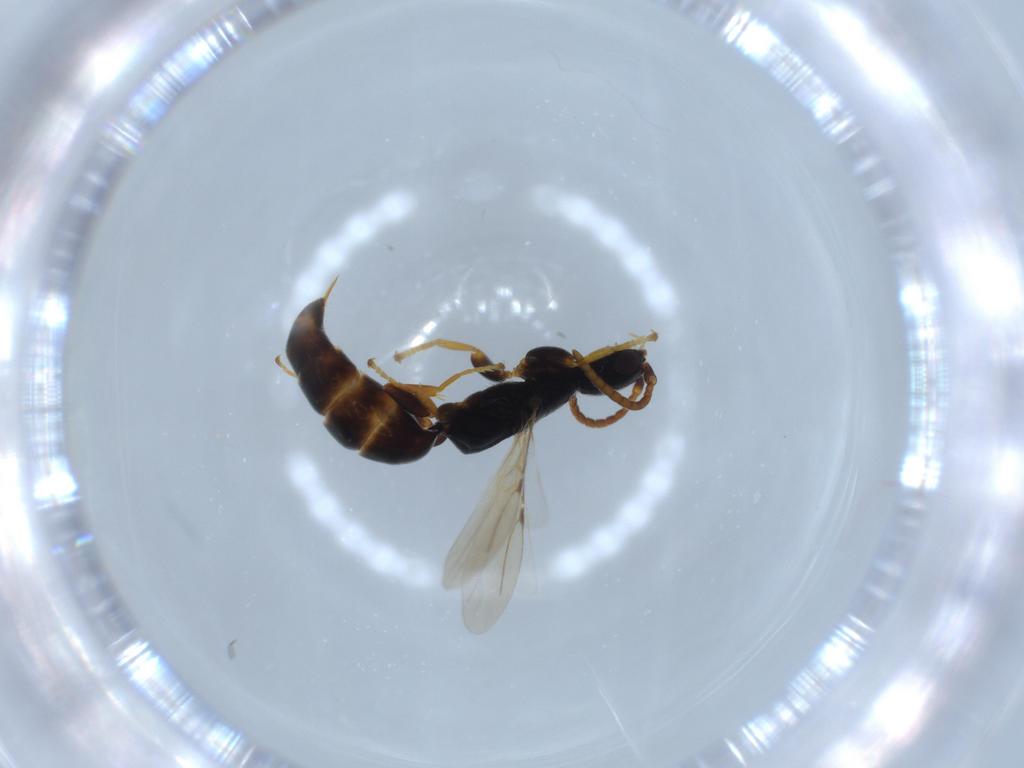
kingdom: Animalia
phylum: Arthropoda
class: Insecta
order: Hymenoptera
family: Bethylidae
